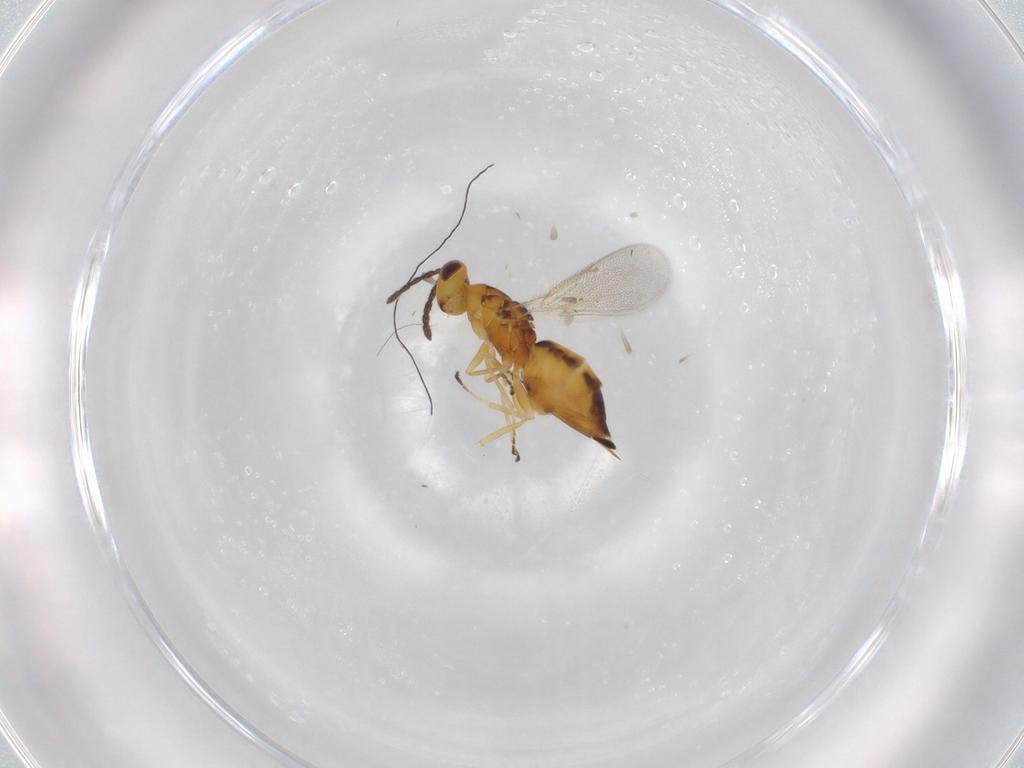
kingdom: Animalia
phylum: Arthropoda
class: Insecta
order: Hymenoptera
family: Eulophidae
